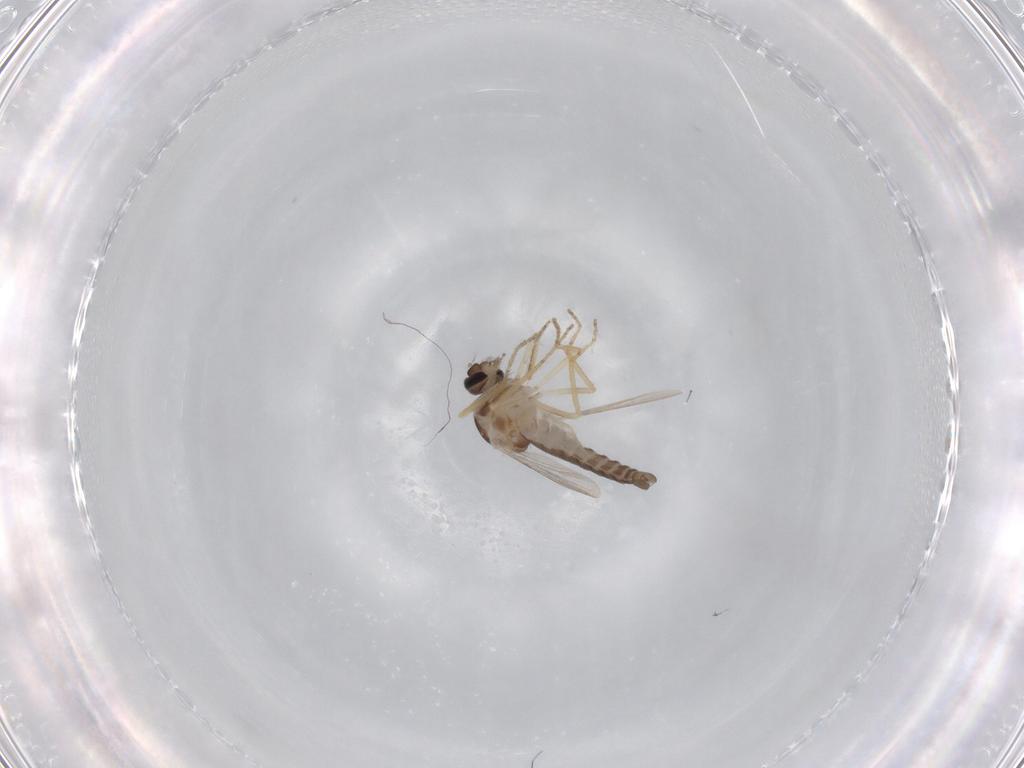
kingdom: Animalia
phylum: Arthropoda
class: Insecta
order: Diptera
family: Ceratopogonidae
